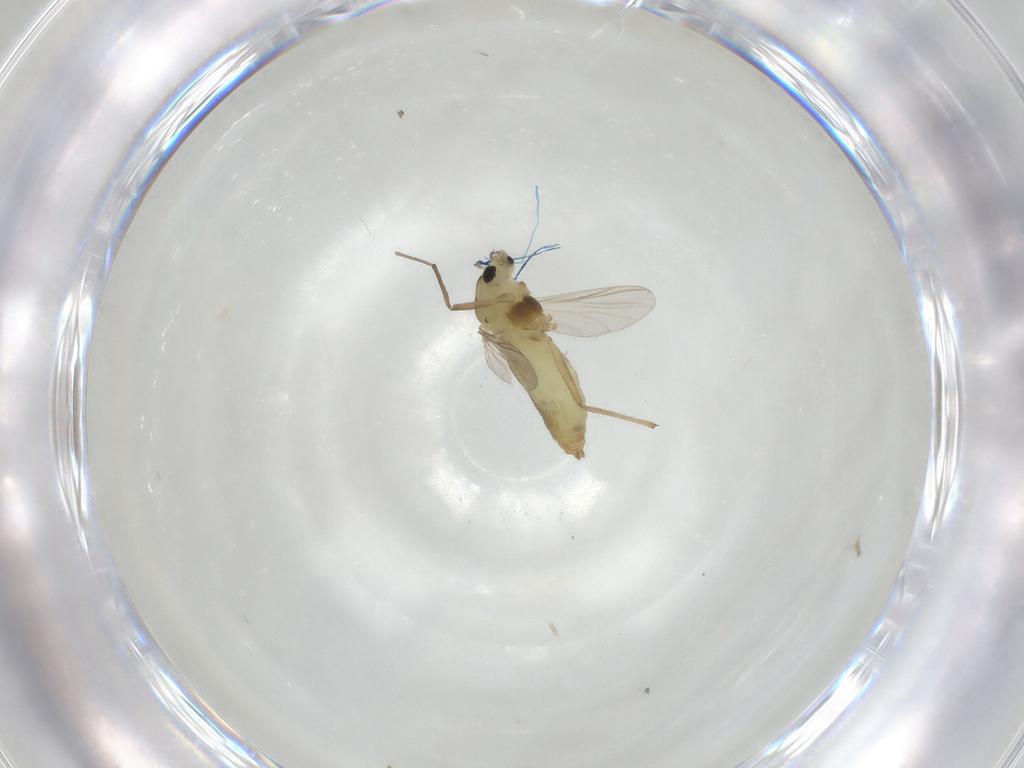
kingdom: Animalia
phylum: Arthropoda
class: Insecta
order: Diptera
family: Chironomidae
